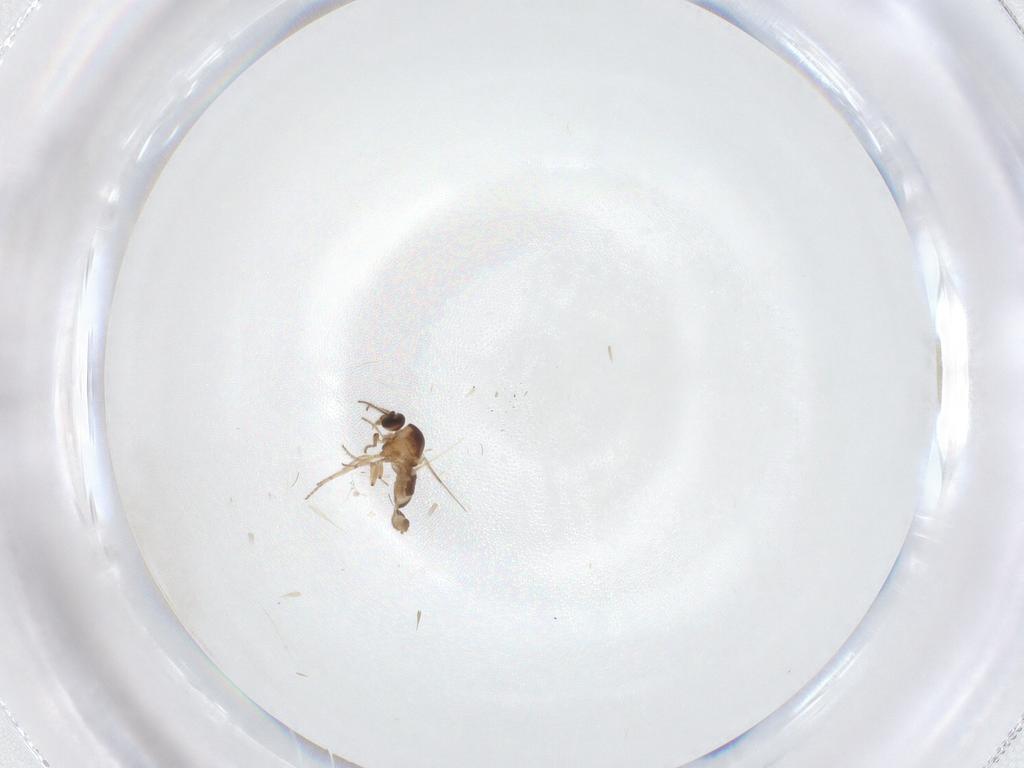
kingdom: Animalia
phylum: Arthropoda
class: Insecta
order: Diptera
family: Ceratopogonidae
